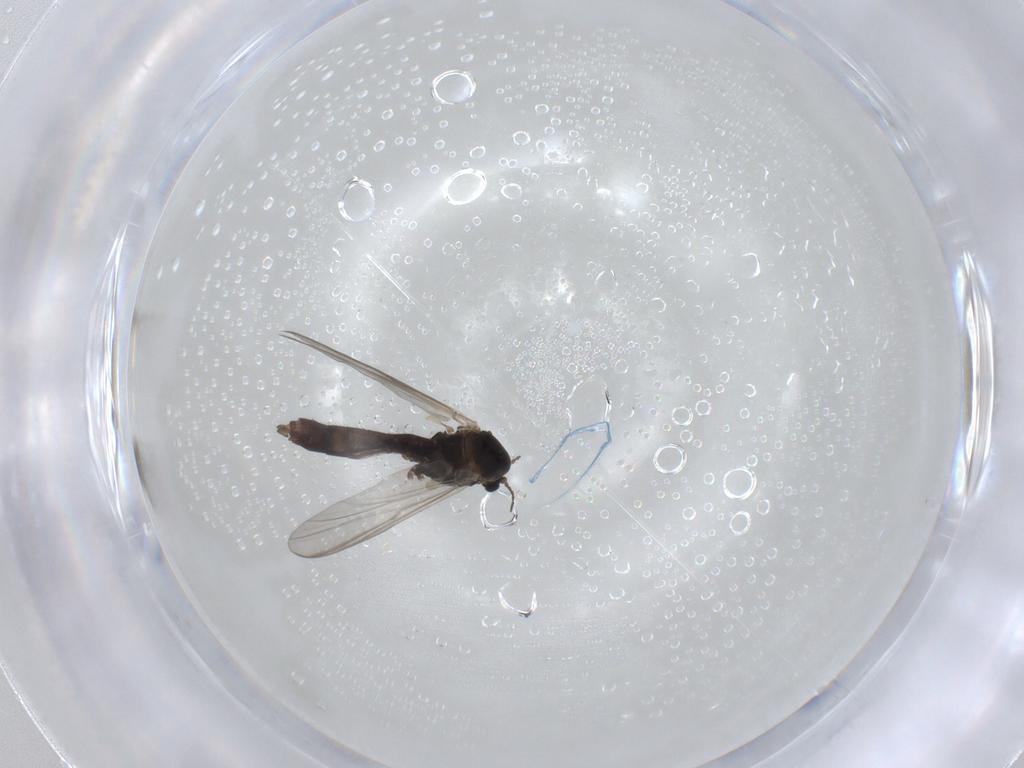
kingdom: Animalia
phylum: Arthropoda
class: Insecta
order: Diptera
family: Chironomidae
